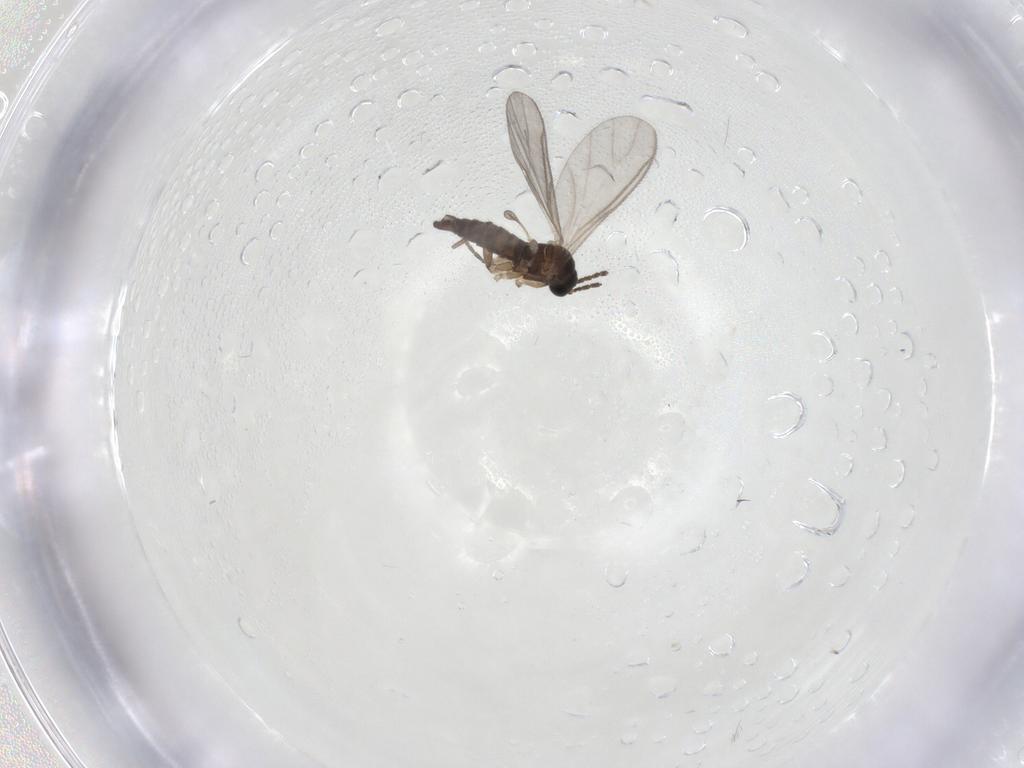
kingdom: Animalia
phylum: Arthropoda
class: Insecta
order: Diptera
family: Sciaridae
